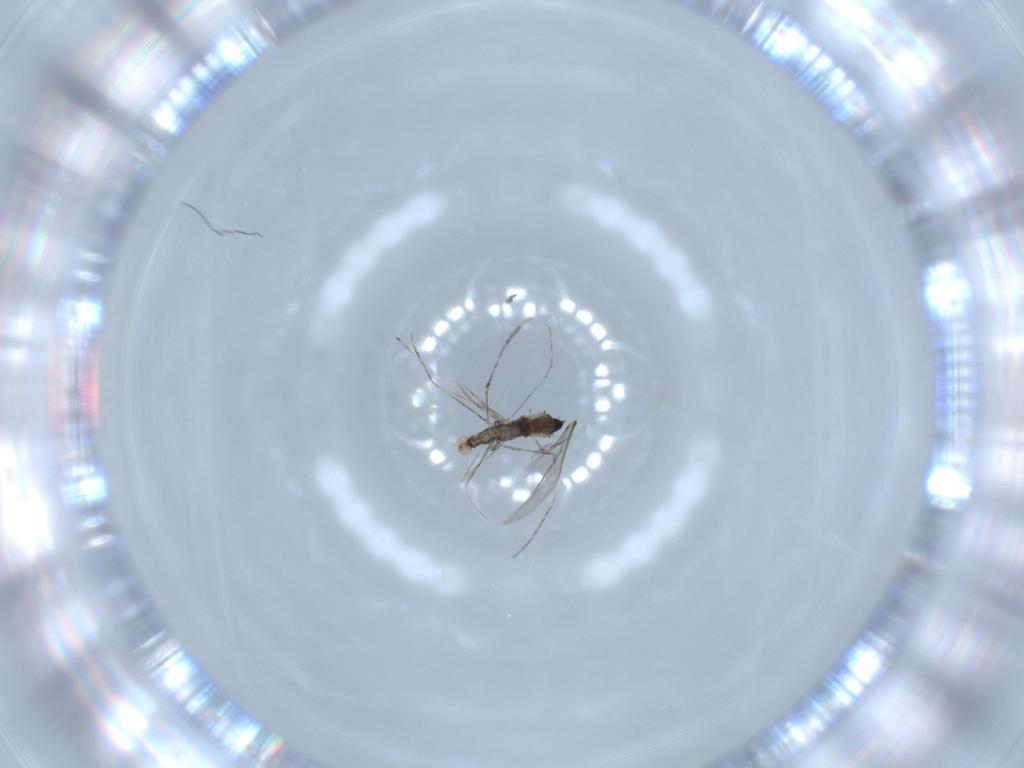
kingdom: Animalia
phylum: Arthropoda
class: Insecta
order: Diptera
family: Cecidomyiidae
